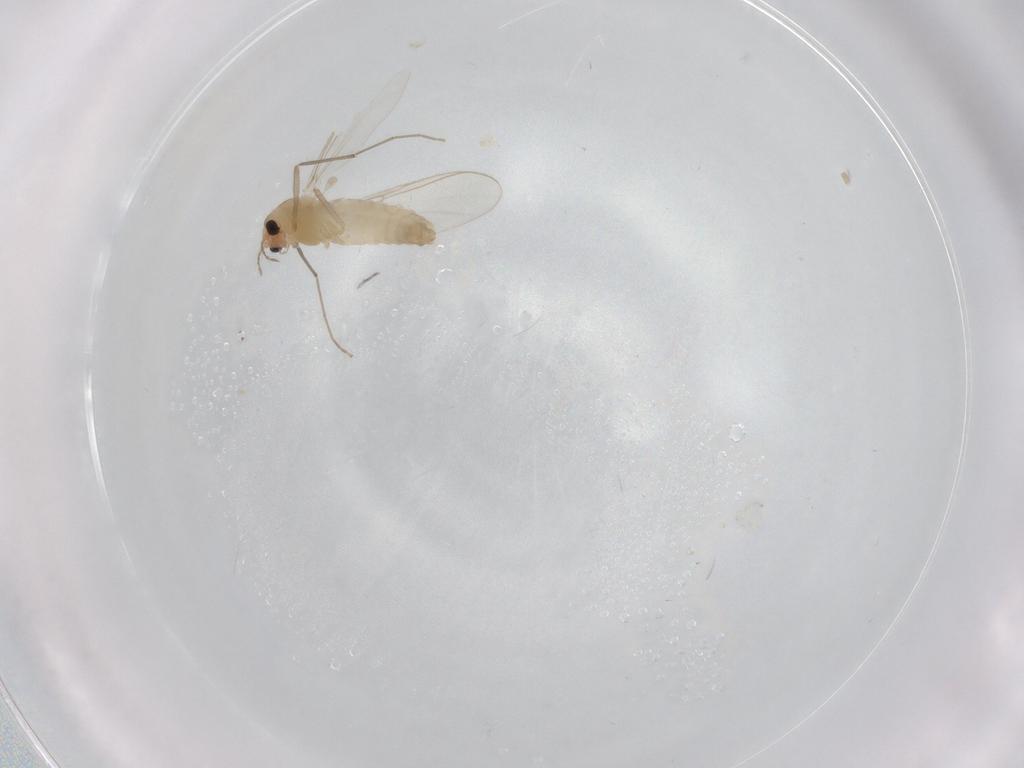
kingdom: Animalia
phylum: Arthropoda
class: Insecta
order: Diptera
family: Chironomidae
